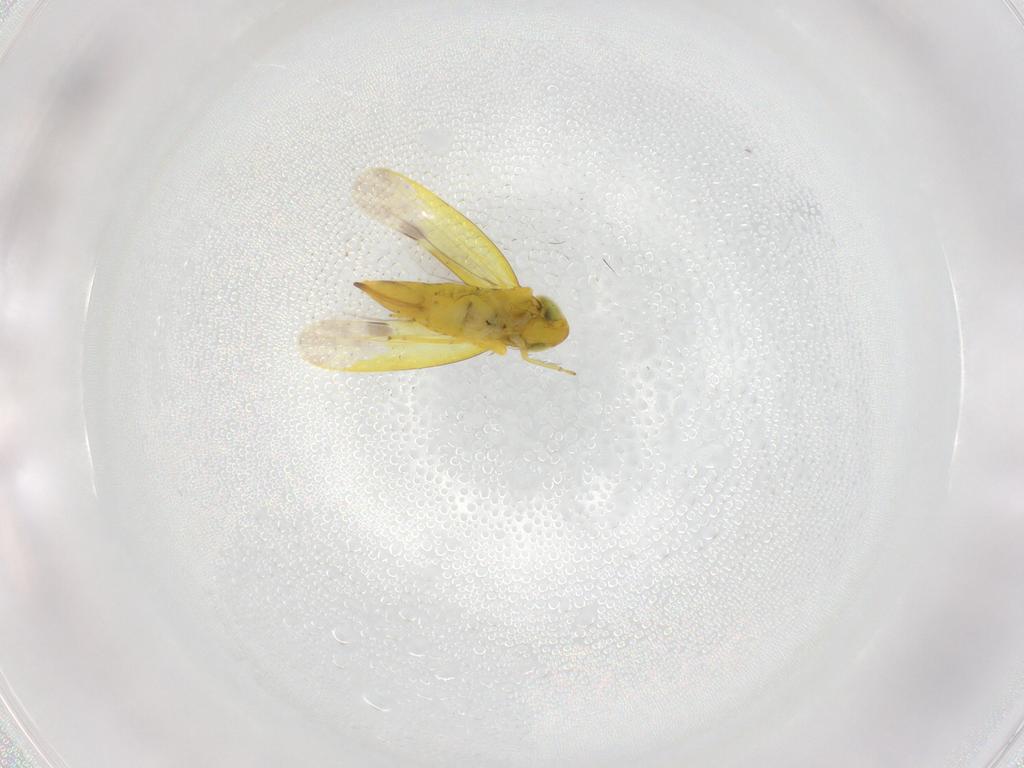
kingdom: Animalia
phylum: Arthropoda
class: Insecta
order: Hemiptera
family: Cicadellidae
